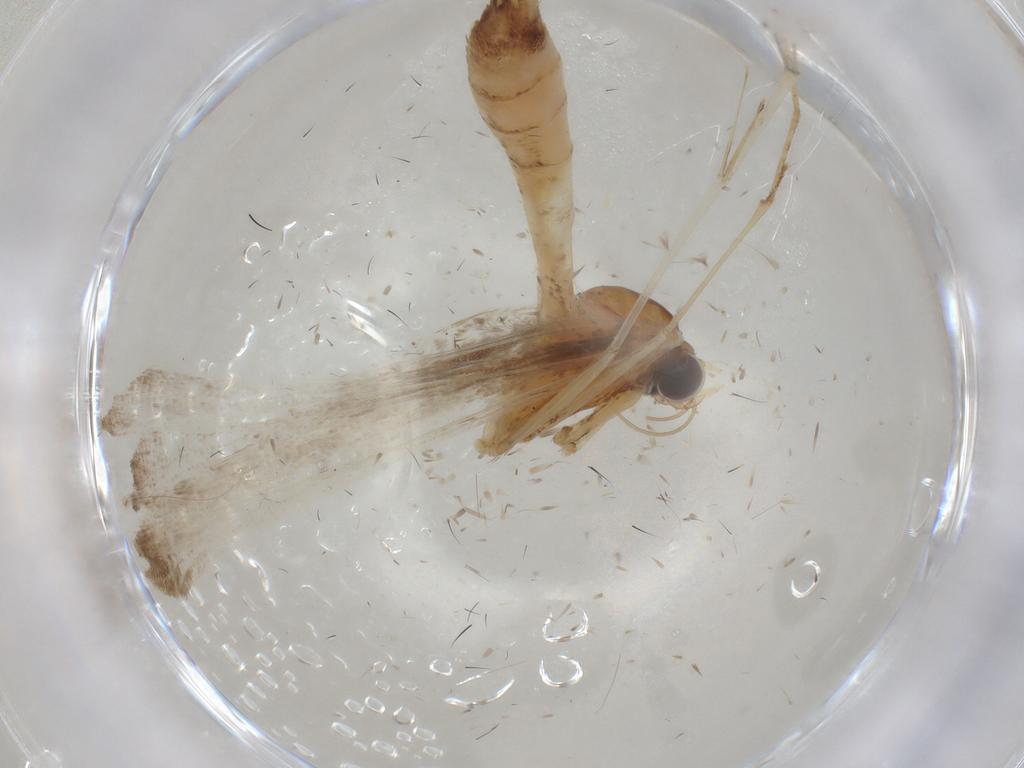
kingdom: Animalia
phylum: Arthropoda
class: Insecta
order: Lepidoptera
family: Pterophoridae
